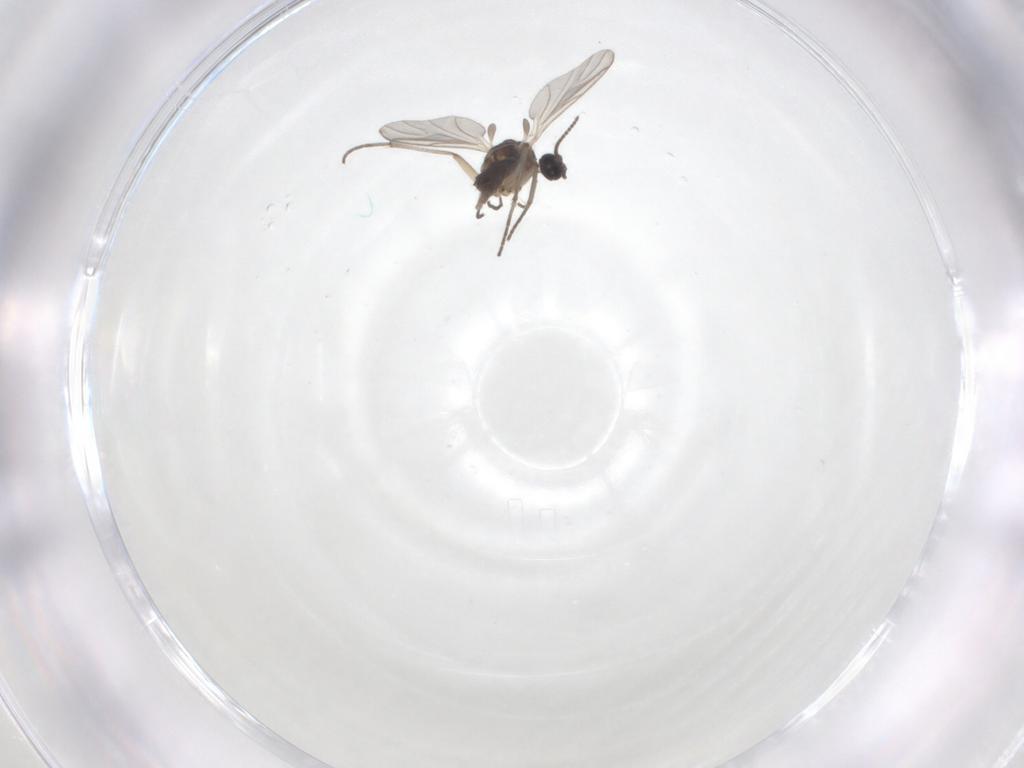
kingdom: Animalia
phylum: Arthropoda
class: Insecta
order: Diptera
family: Sciaridae
